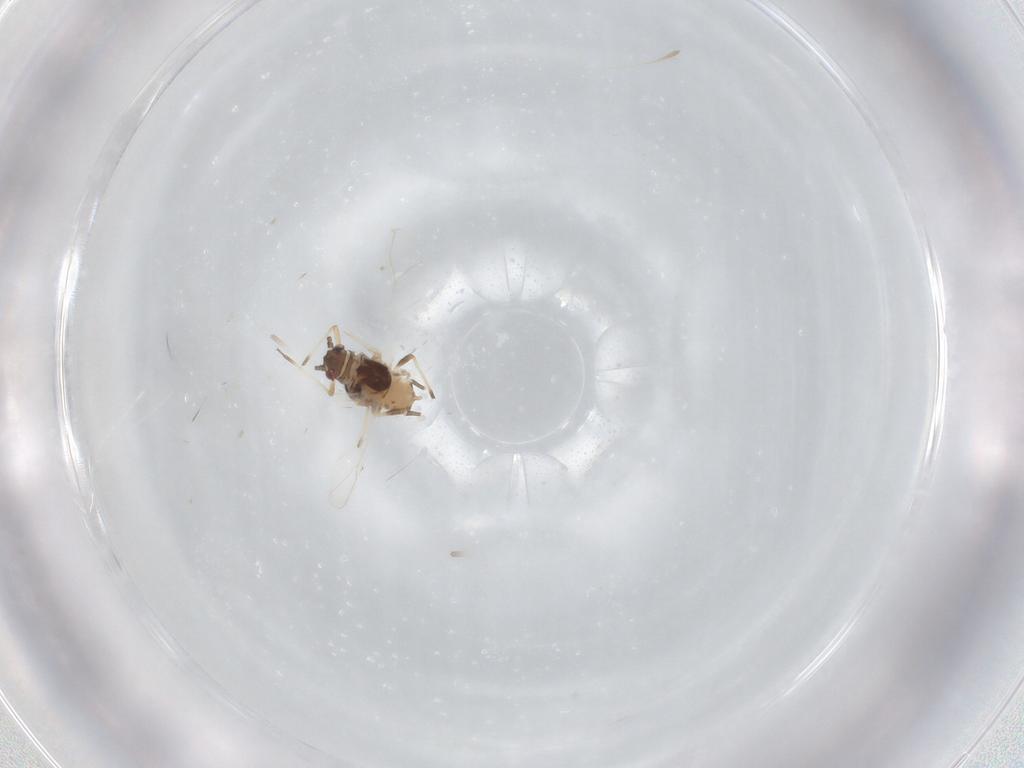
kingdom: Animalia
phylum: Arthropoda
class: Insecta
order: Hemiptera
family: Aphididae
